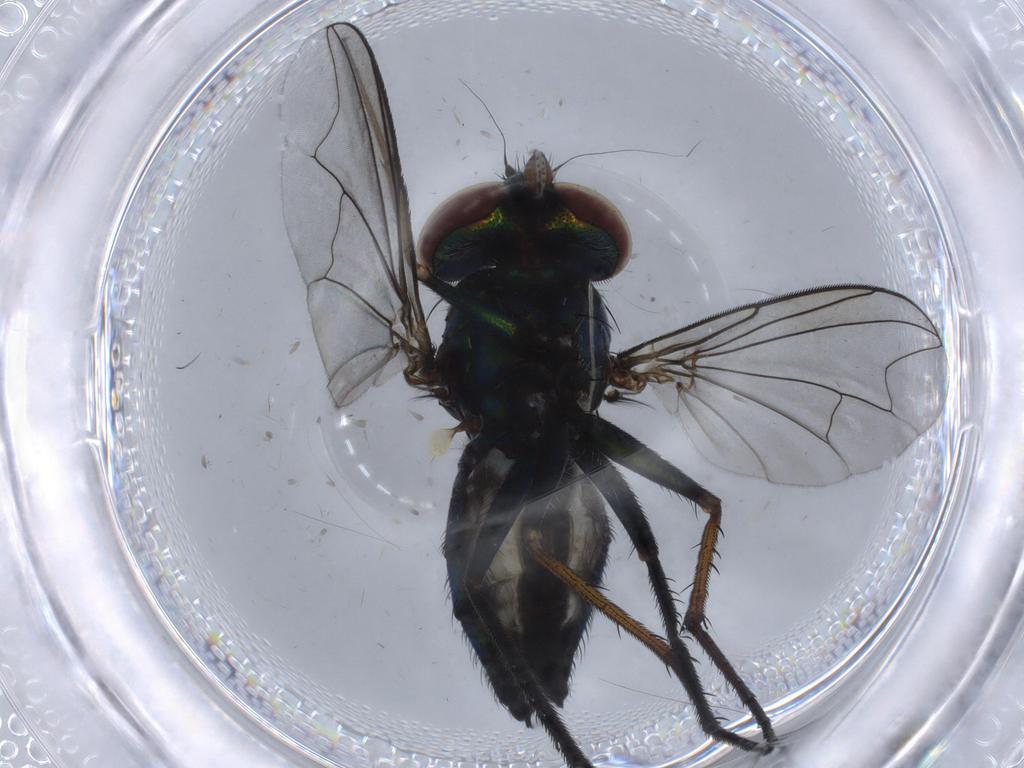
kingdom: Animalia
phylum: Arthropoda
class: Insecta
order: Diptera
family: Dolichopodidae
